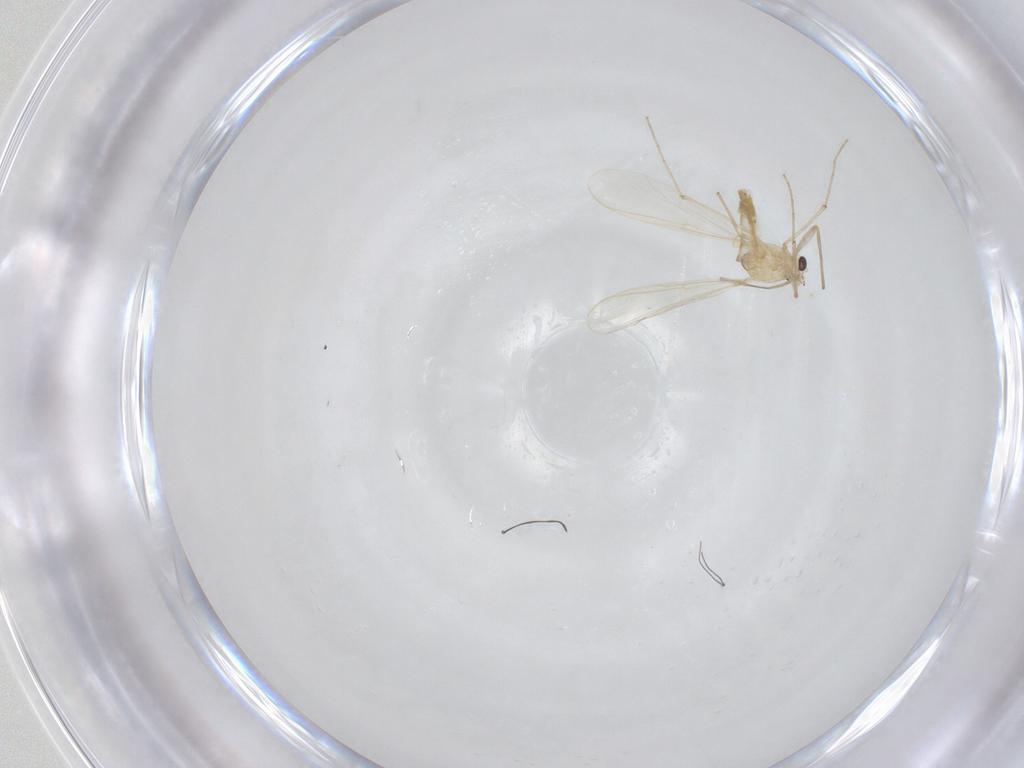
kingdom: Animalia
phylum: Arthropoda
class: Insecta
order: Diptera
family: Chironomidae
